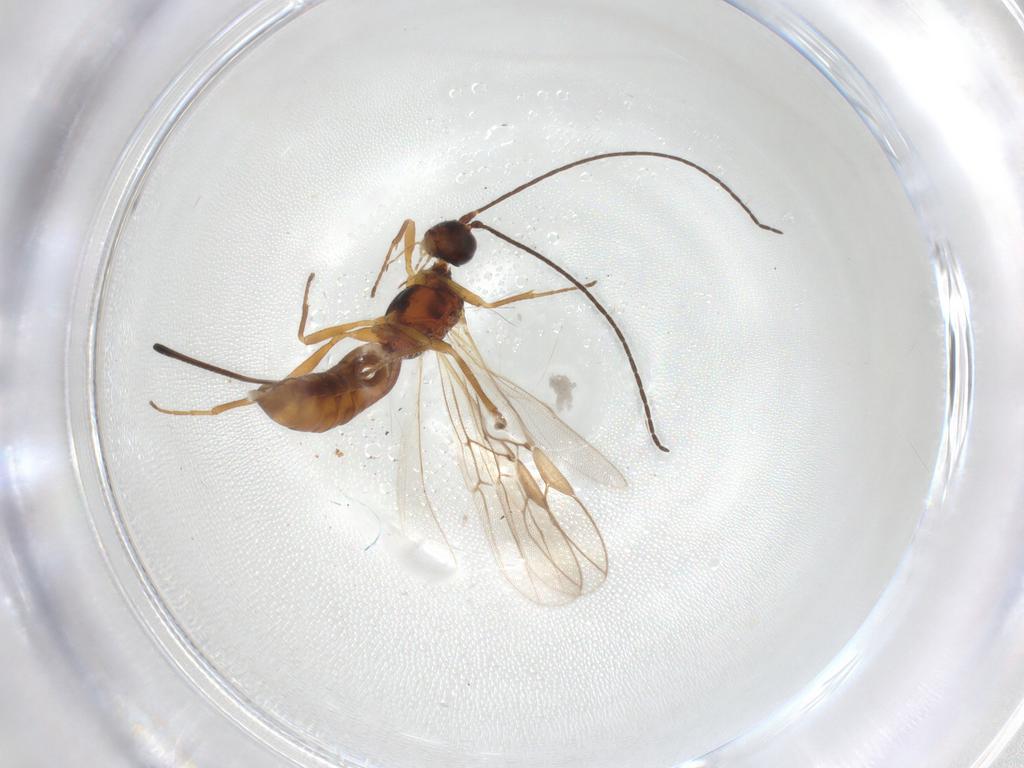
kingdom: Animalia
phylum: Arthropoda
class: Insecta
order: Hymenoptera
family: Braconidae
